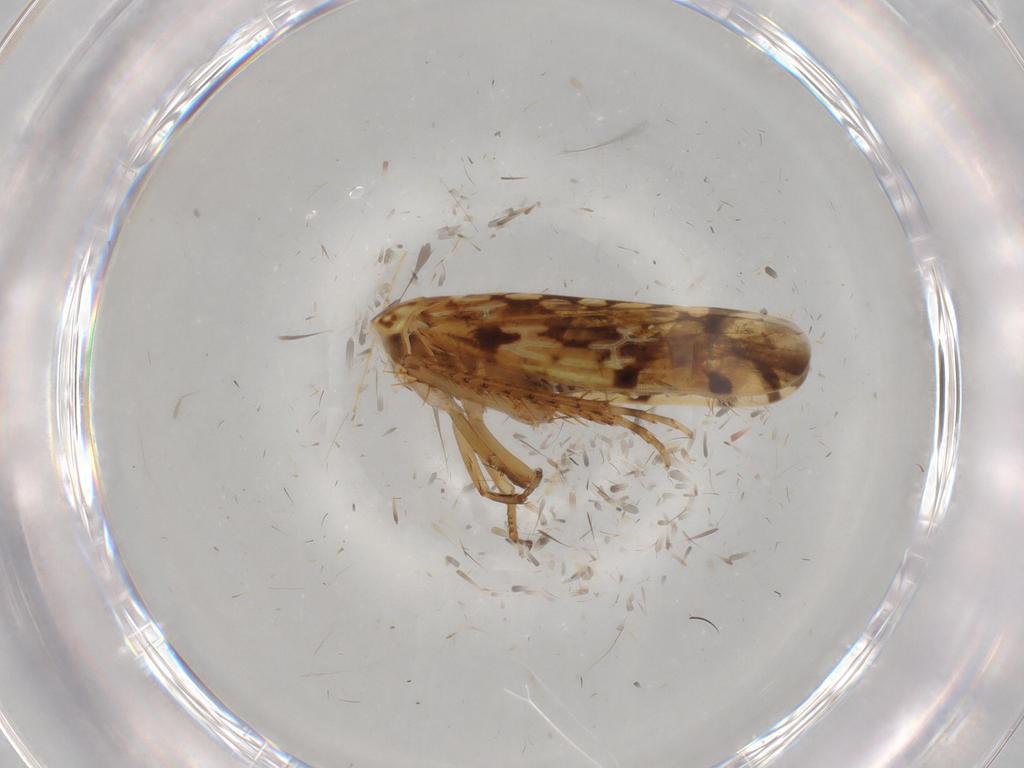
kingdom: Animalia
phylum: Arthropoda
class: Insecta
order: Hemiptera
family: Cicadellidae
